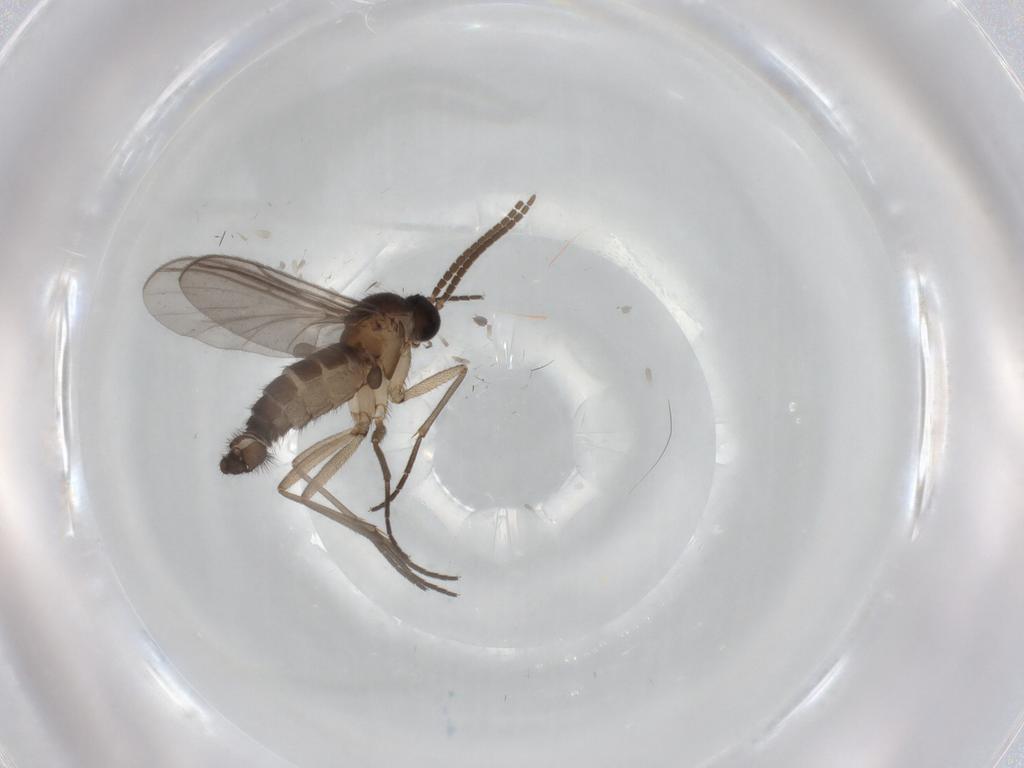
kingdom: Animalia
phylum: Arthropoda
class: Insecta
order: Diptera
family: Sciaridae
